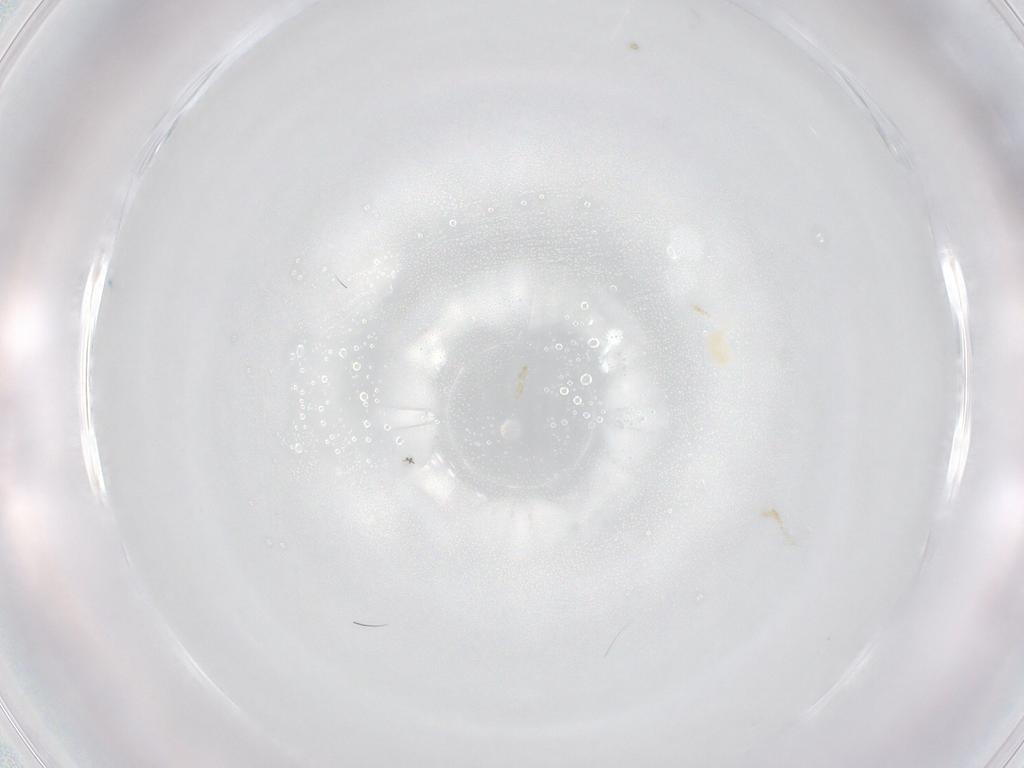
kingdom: Animalia
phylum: Arthropoda
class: Arachnida
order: Trombidiformes
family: Eupodidae
